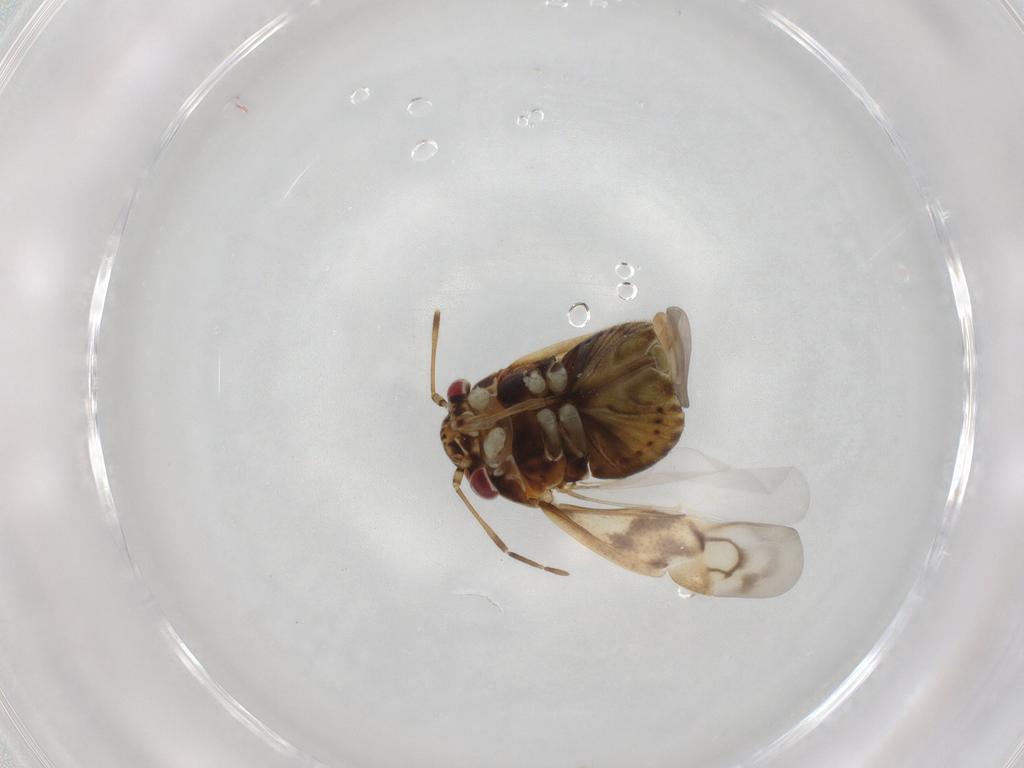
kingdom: Animalia
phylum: Arthropoda
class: Insecta
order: Hemiptera
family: Miridae
